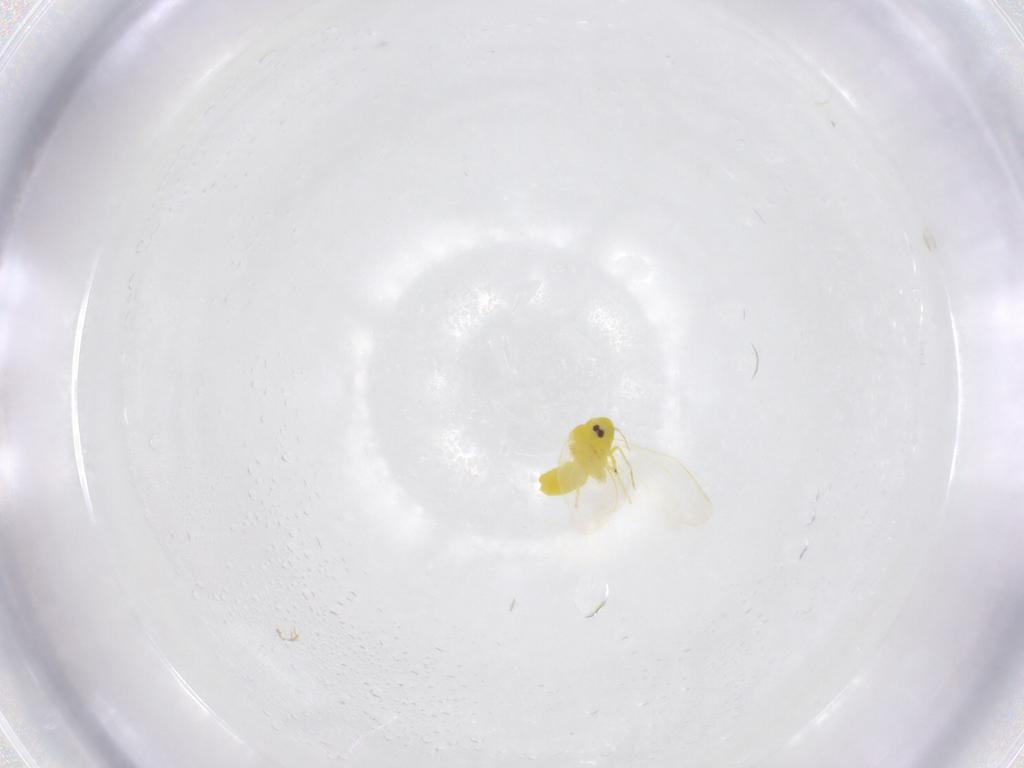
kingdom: Animalia
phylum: Arthropoda
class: Insecta
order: Hemiptera
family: Aleyrodidae
